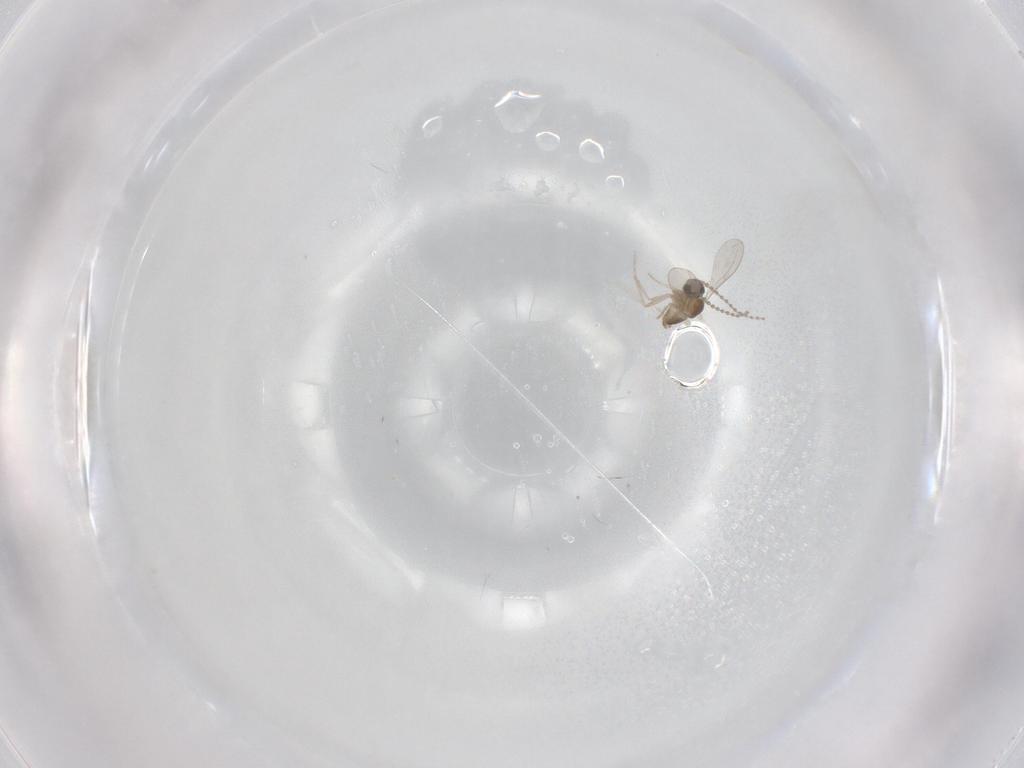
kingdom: Animalia
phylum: Arthropoda
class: Insecta
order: Diptera
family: Cecidomyiidae
